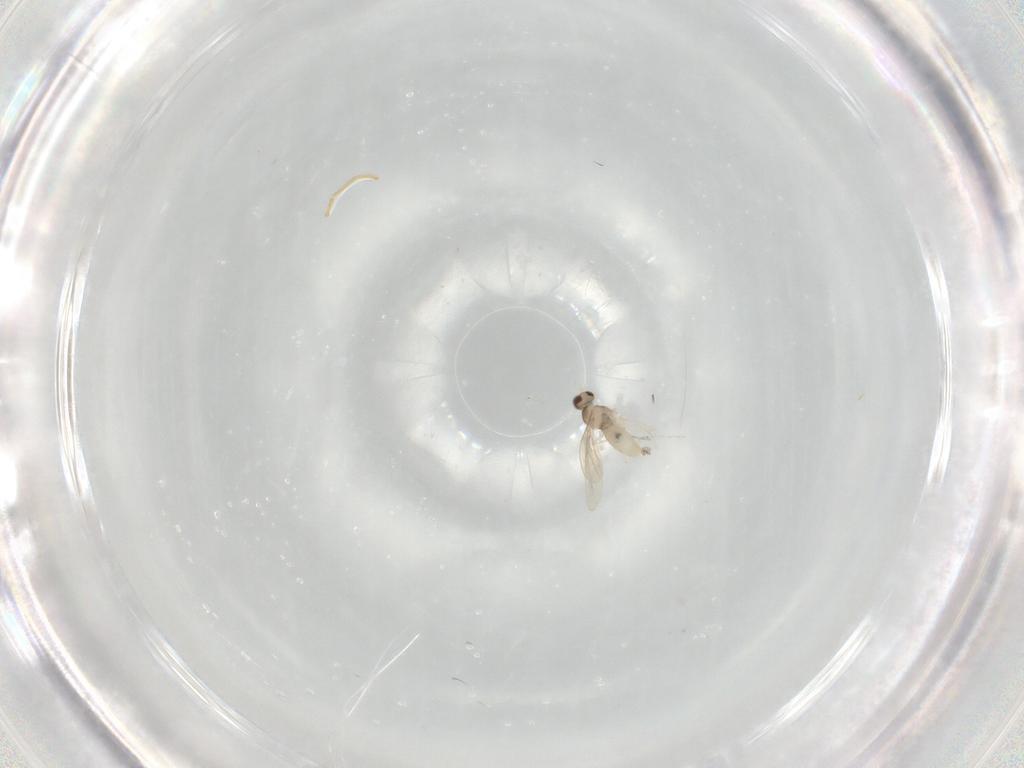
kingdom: Animalia
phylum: Arthropoda
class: Insecta
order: Diptera
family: Cecidomyiidae
